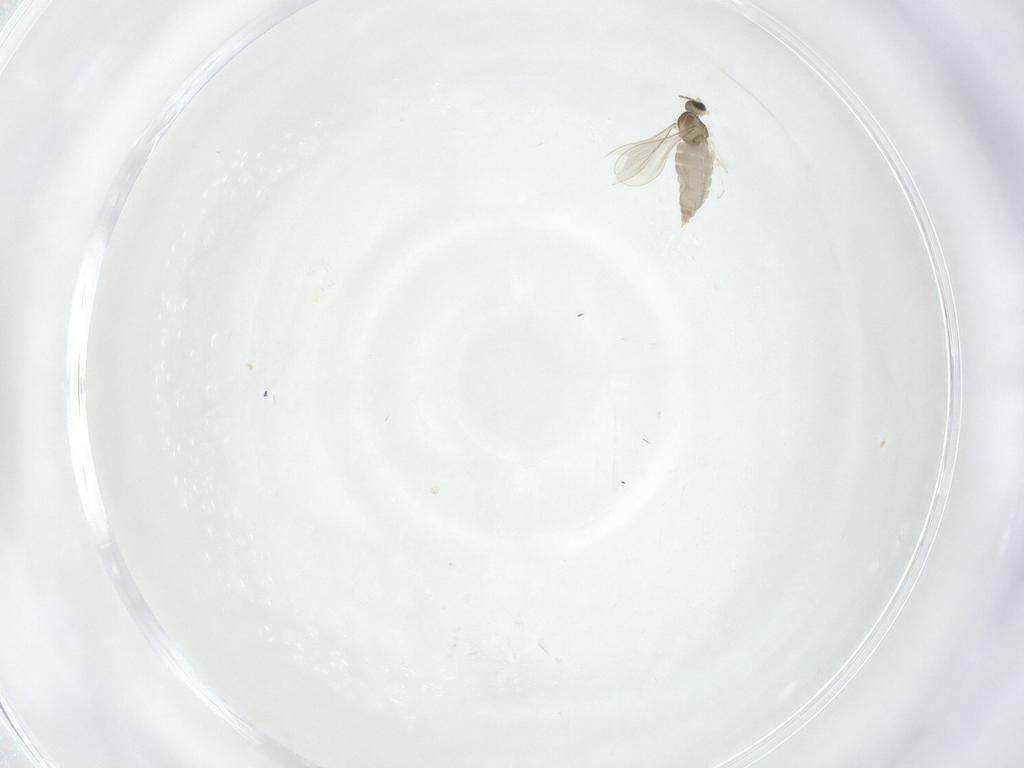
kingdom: Animalia
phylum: Arthropoda
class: Insecta
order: Diptera
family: Cecidomyiidae
